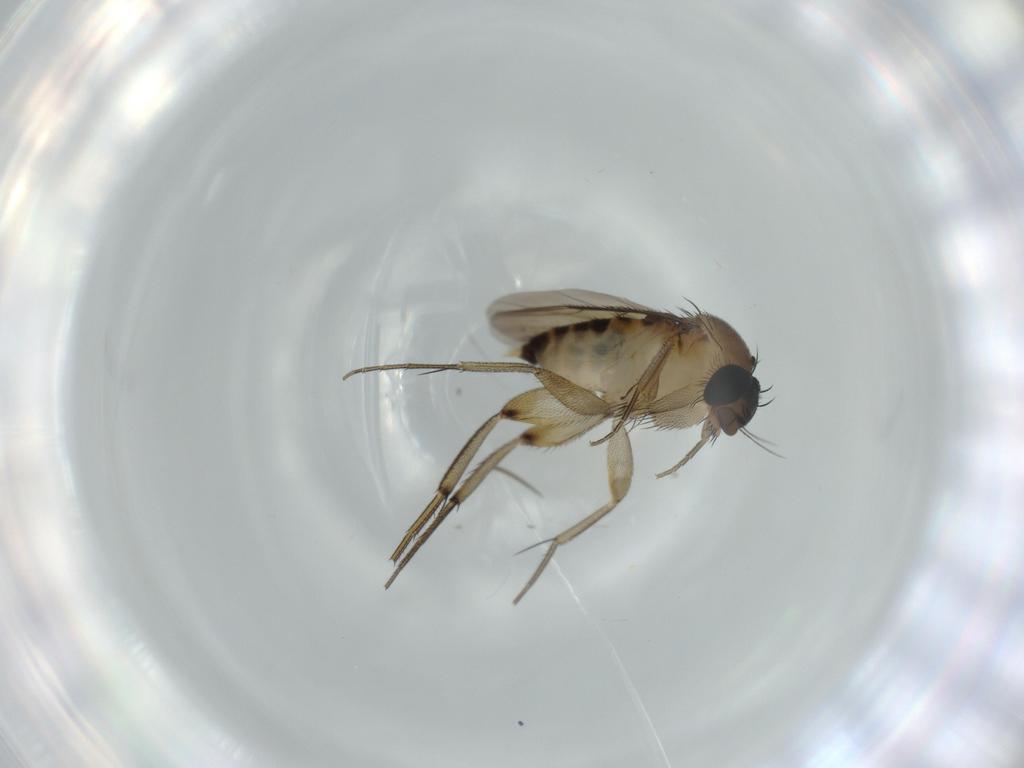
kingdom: Animalia
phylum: Arthropoda
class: Insecta
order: Diptera
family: Phoridae
